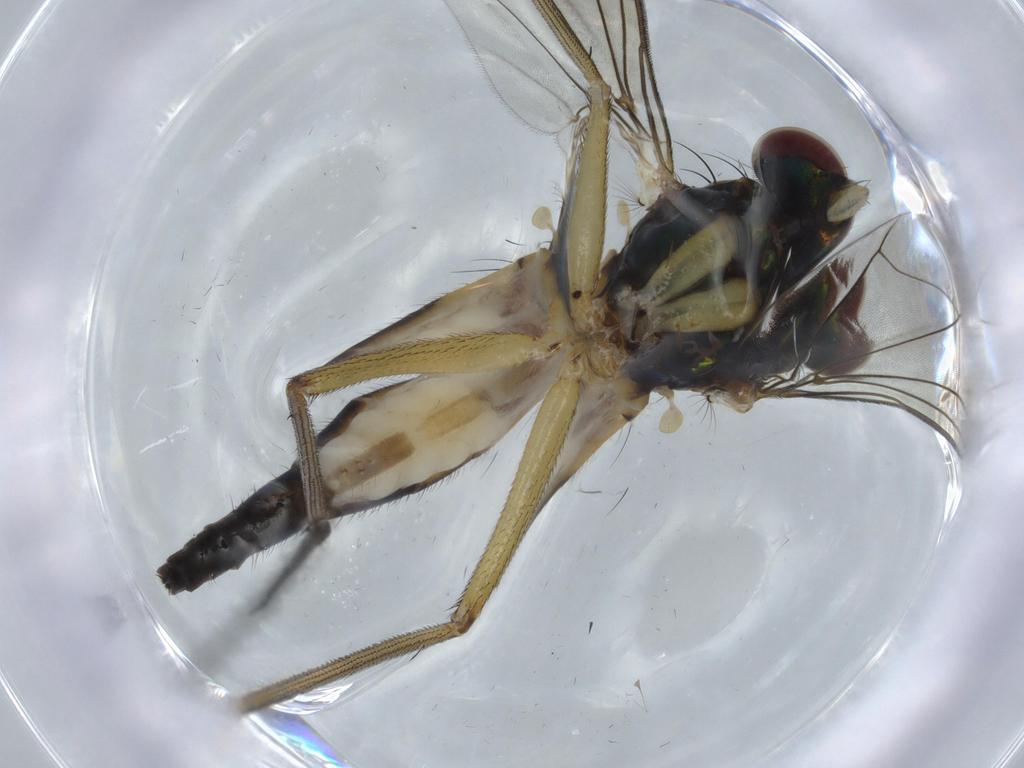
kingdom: Animalia
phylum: Arthropoda
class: Insecta
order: Diptera
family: Dolichopodidae
